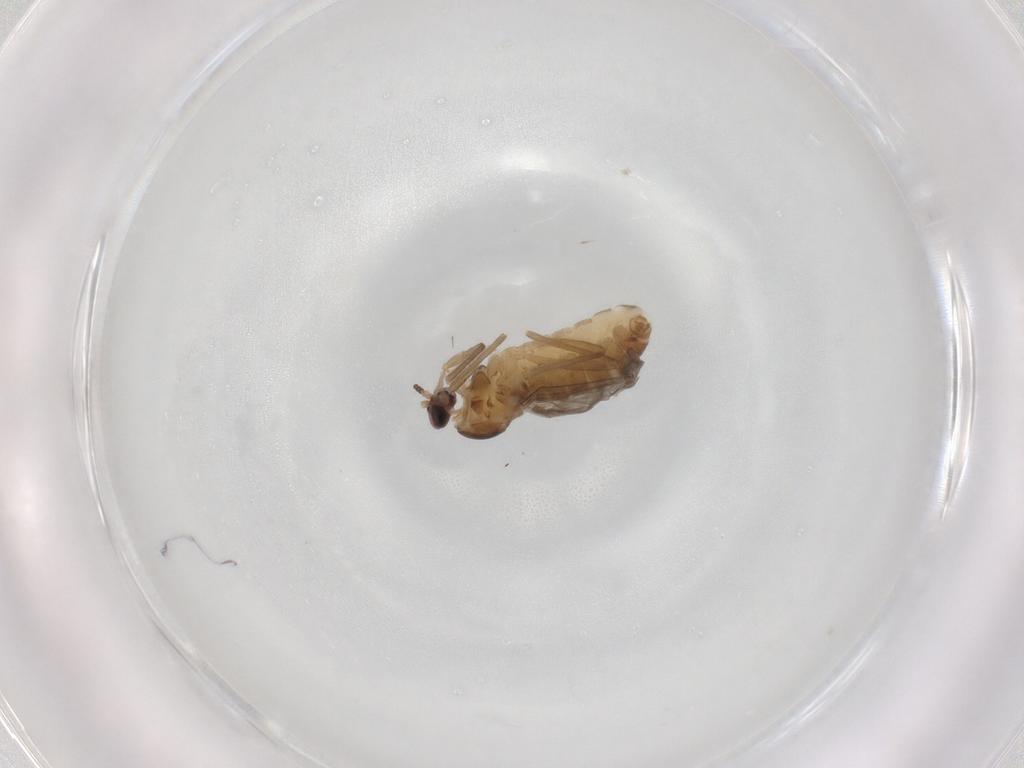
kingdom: Animalia
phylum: Arthropoda
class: Insecta
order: Diptera
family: Cecidomyiidae
